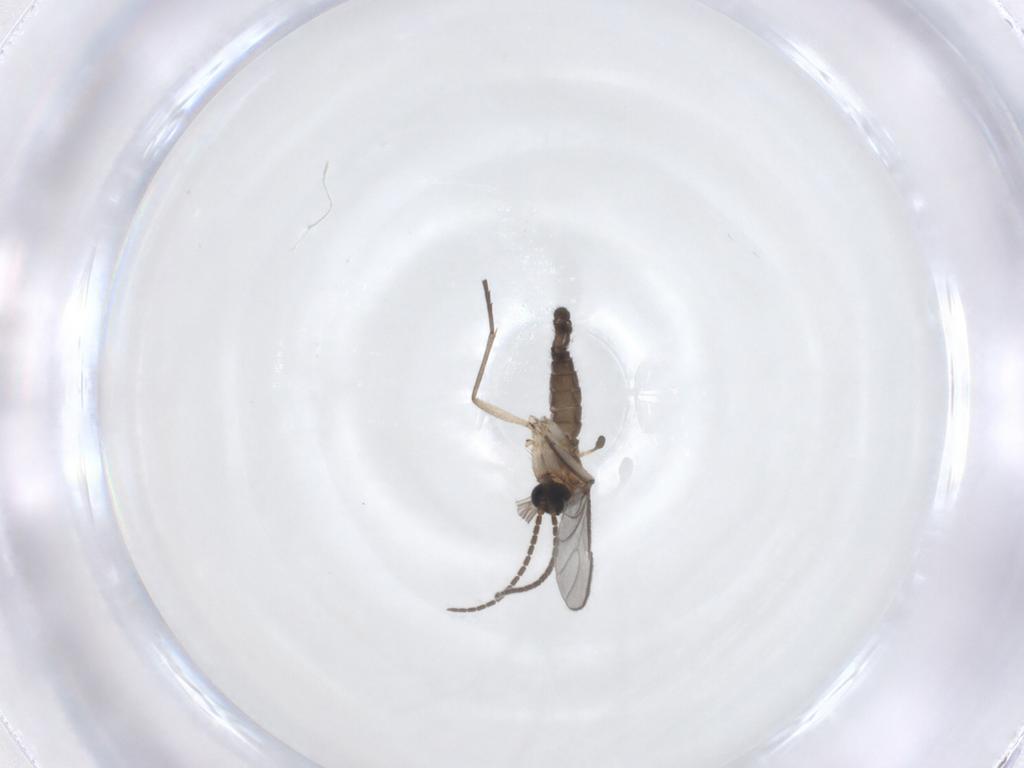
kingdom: Animalia
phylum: Arthropoda
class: Insecta
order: Diptera
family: Sciaridae
